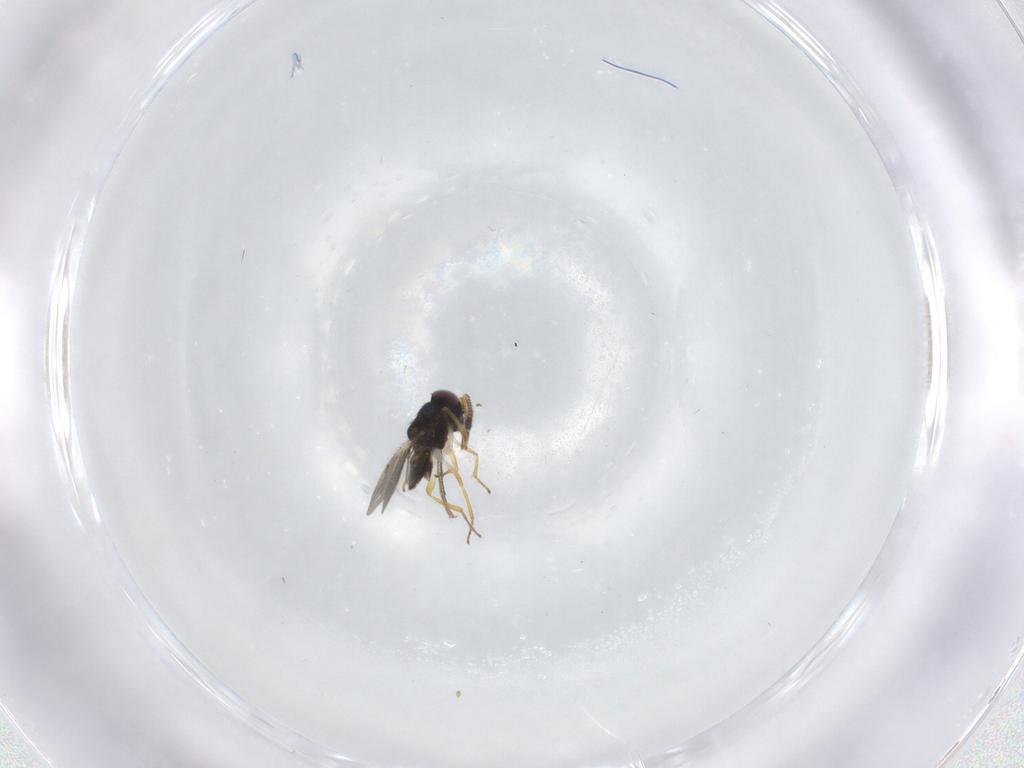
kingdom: Animalia
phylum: Arthropoda
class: Insecta
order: Hymenoptera
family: Encyrtidae
